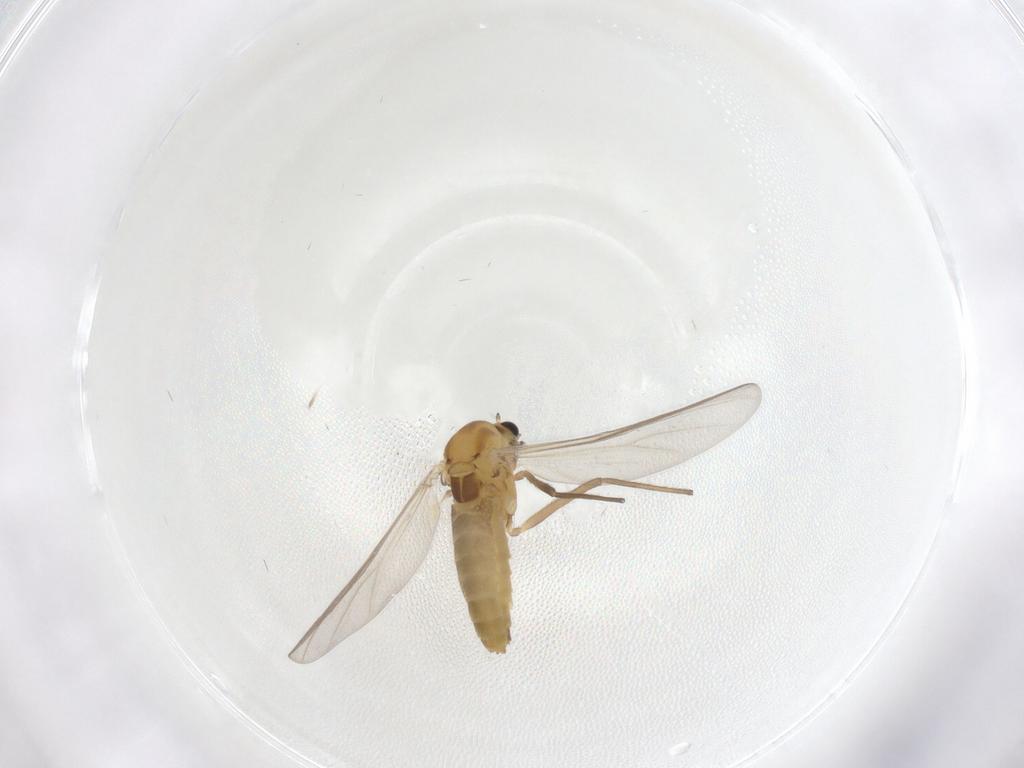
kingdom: Animalia
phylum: Arthropoda
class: Insecta
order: Diptera
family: Chironomidae
